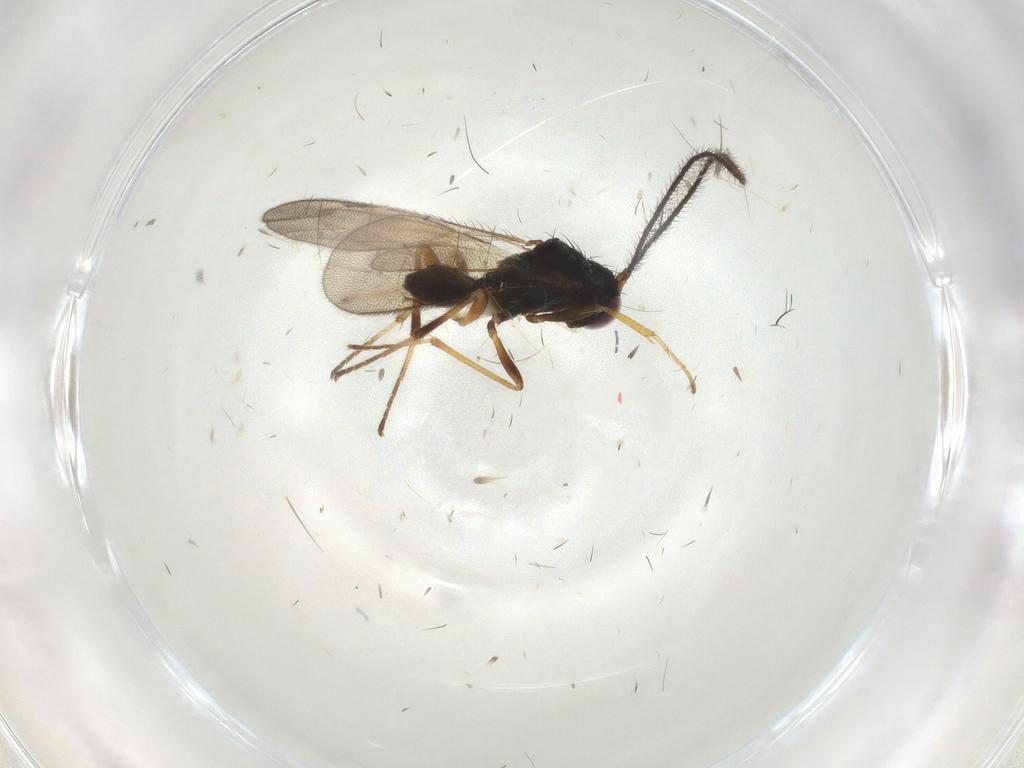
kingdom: Animalia
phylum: Arthropoda
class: Insecta
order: Hymenoptera
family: Diparidae
